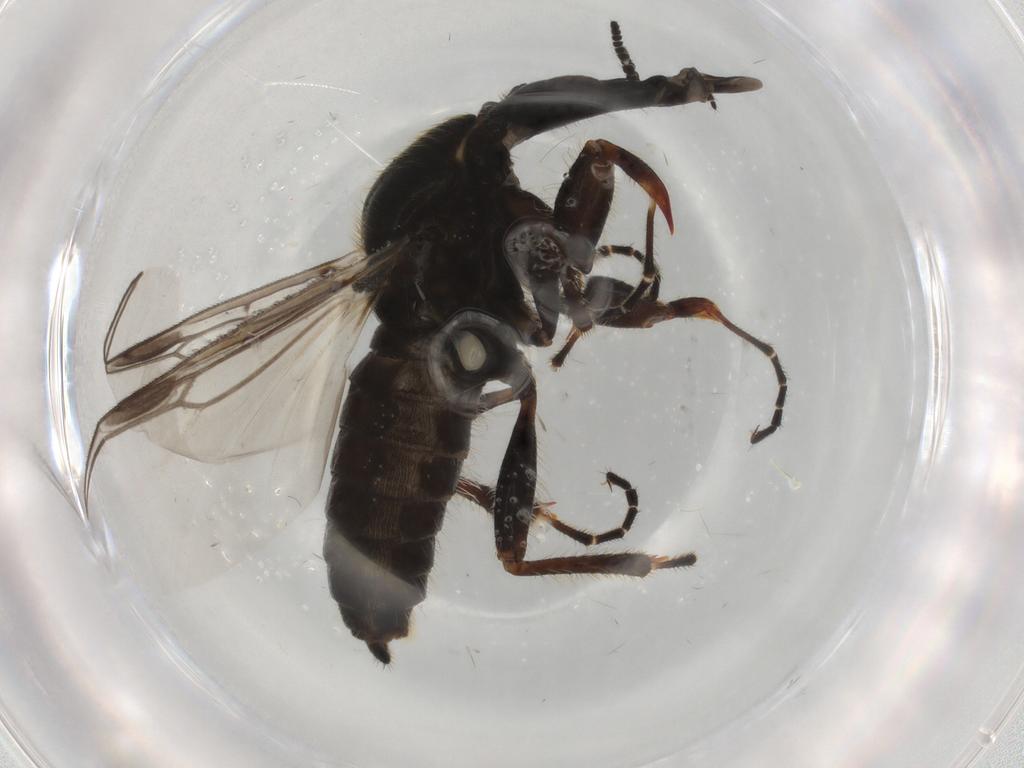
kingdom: Animalia
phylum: Arthropoda
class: Insecta
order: Diptera
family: Bibionidae
